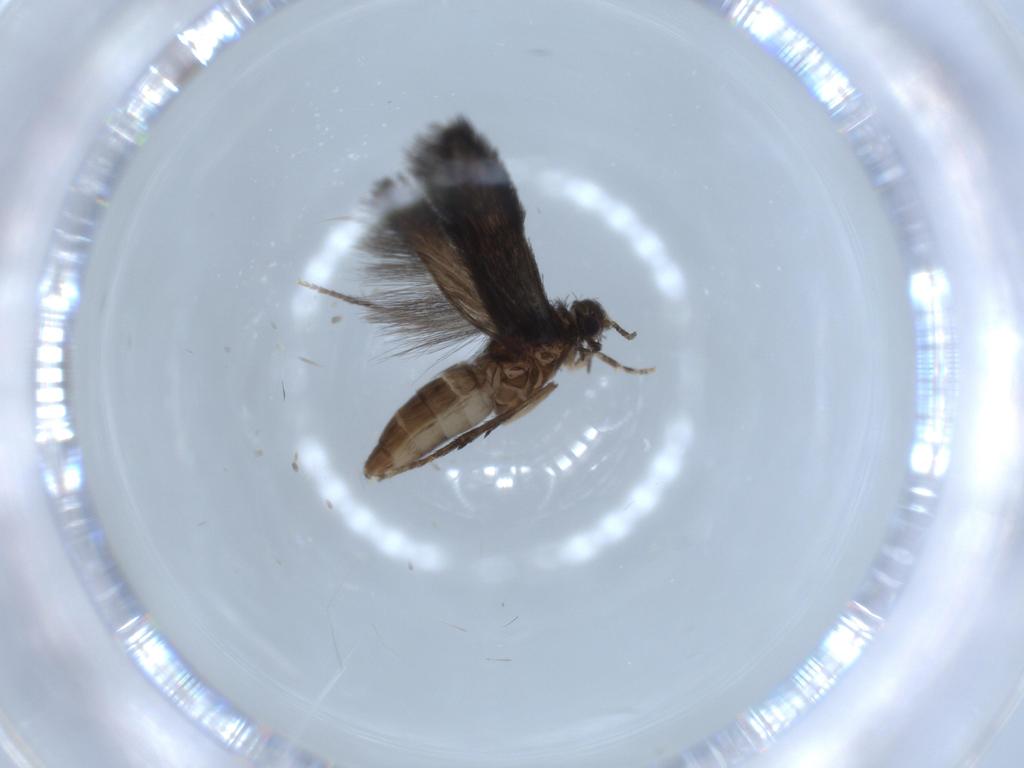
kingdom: Animalia
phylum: Arthropoda
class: Insecta
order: Trichoptera
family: Hydroptilidae
